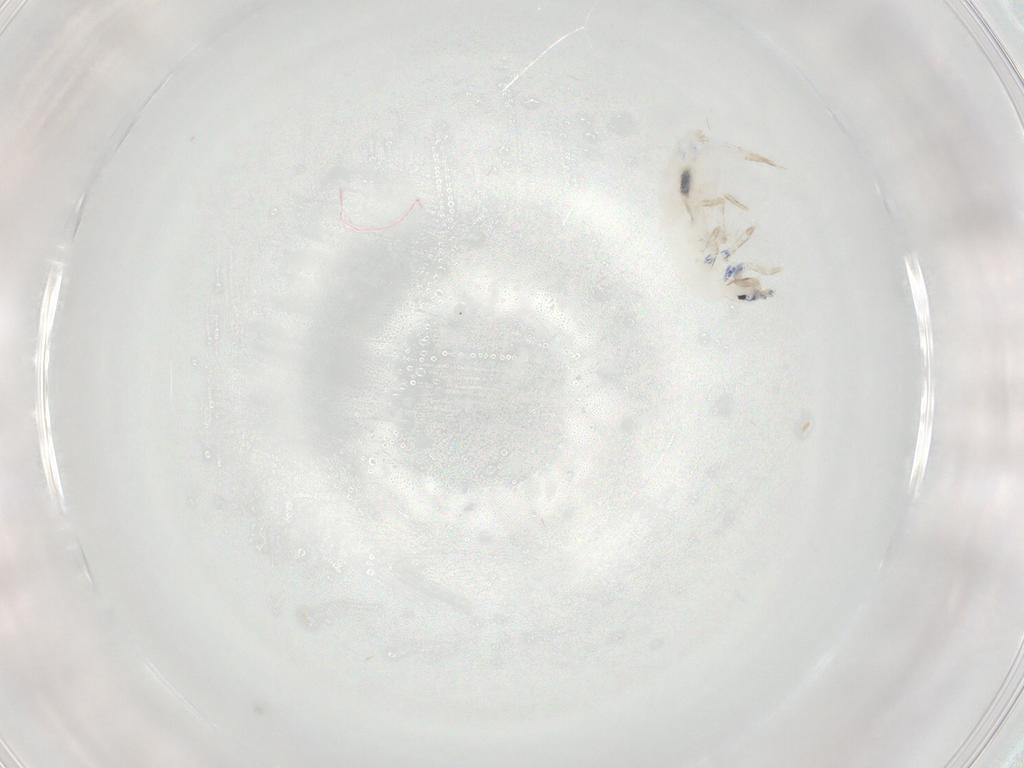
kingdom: Animalia
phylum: Arthropoda
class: Collembola
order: Entomobryomorpha
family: Entomobryidae
